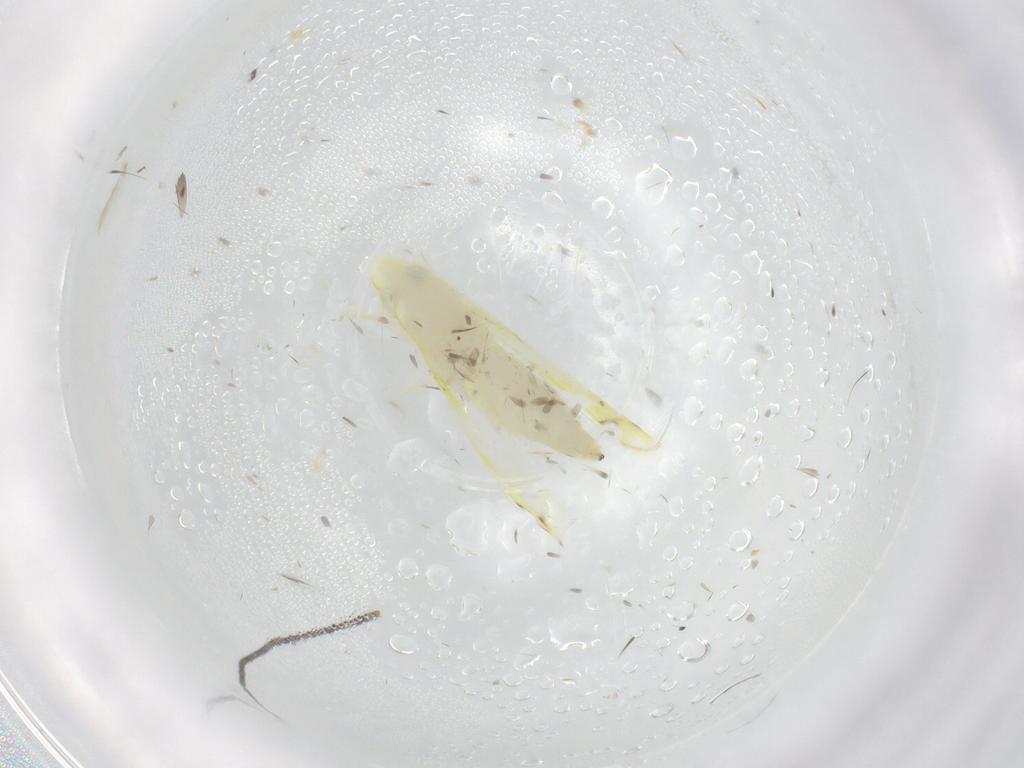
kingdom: Animalia
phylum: Arthropoda
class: Insecta
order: Hemiptera
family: Cicadellidae
